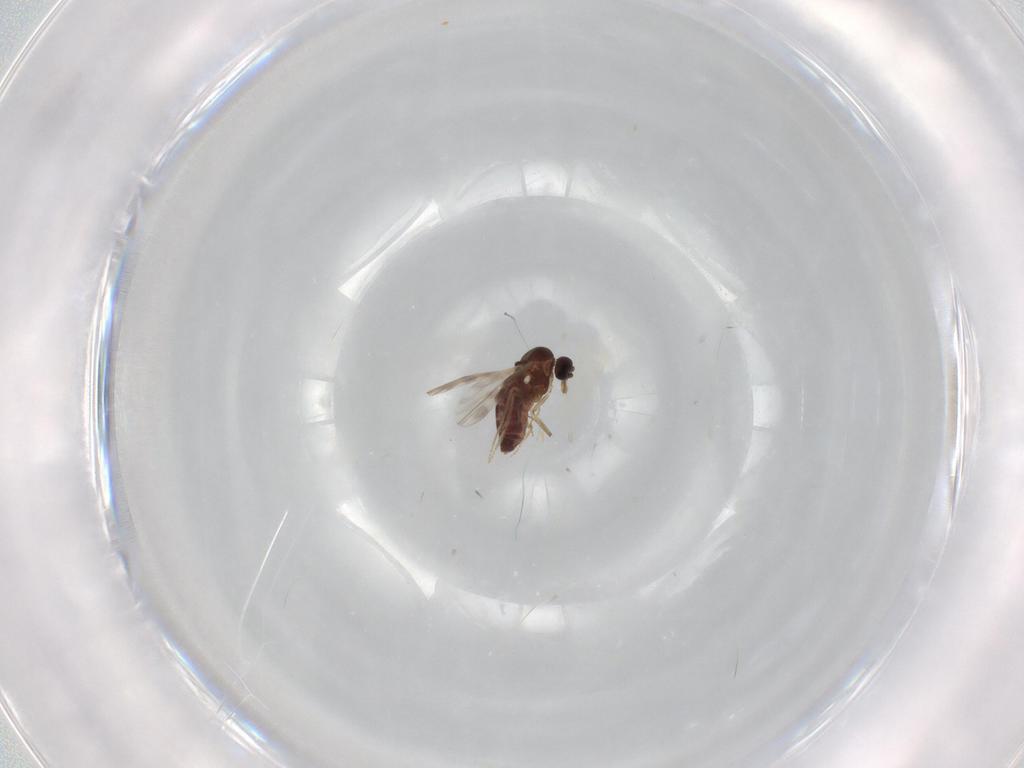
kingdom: Animalia
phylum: Arthropoda
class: Insecta
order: Diptera
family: Ceratopogonidae
